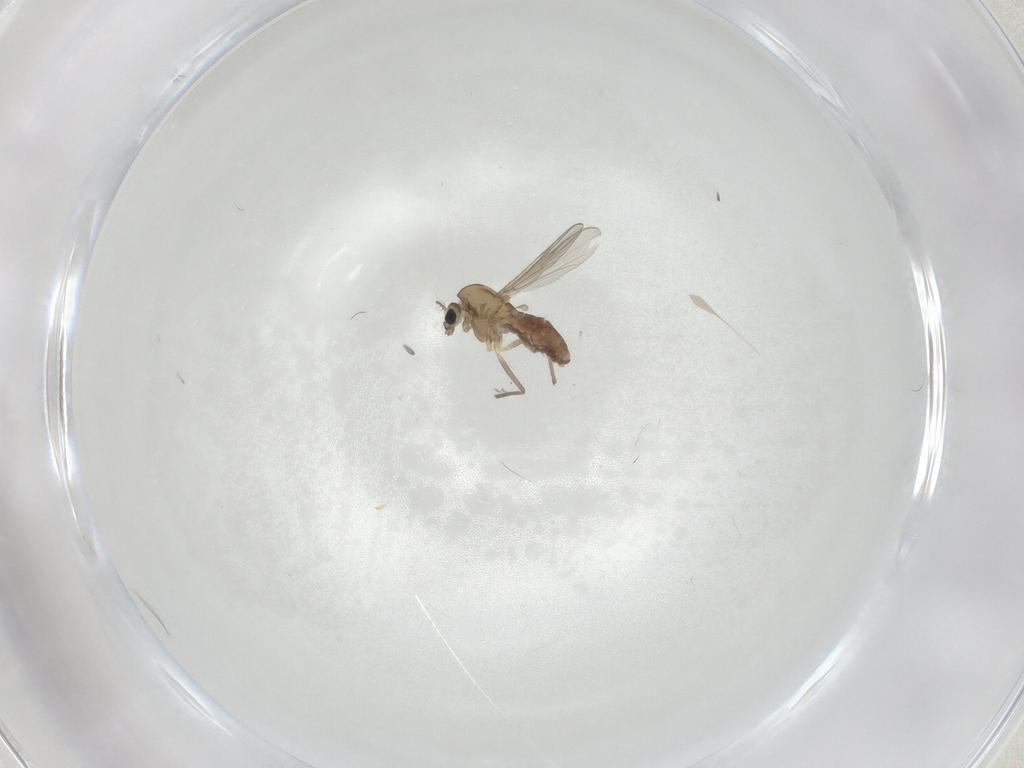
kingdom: Animalia
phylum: Arthropoda
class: Insecta
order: Diptera
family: Chironomidae
